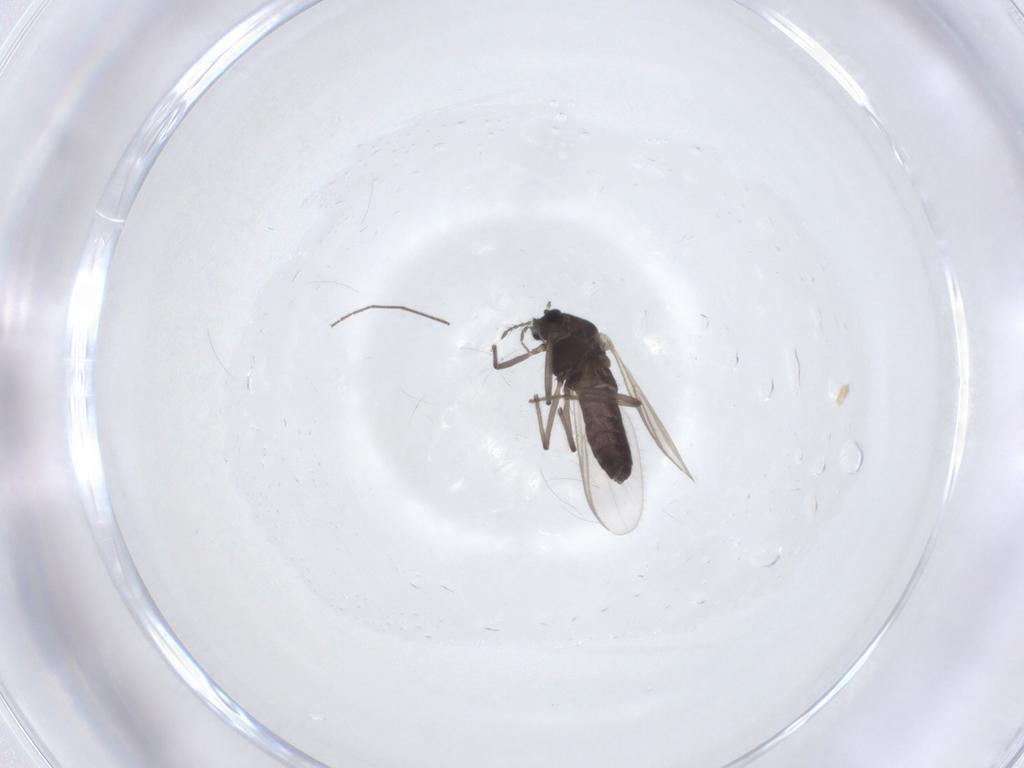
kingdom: Animalia
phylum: Arthropoda
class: Insecta
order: Diptera
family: Chironomidae
